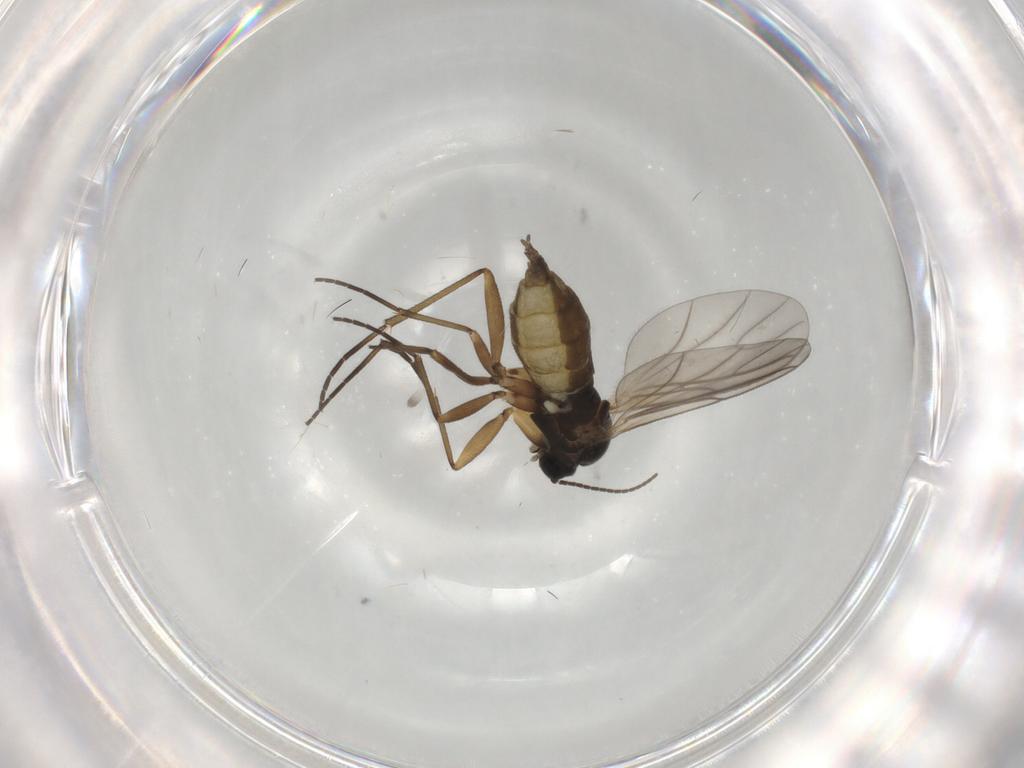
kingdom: Animalia
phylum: Arthropoda
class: Insecta
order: Diptera
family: Sciaridae
